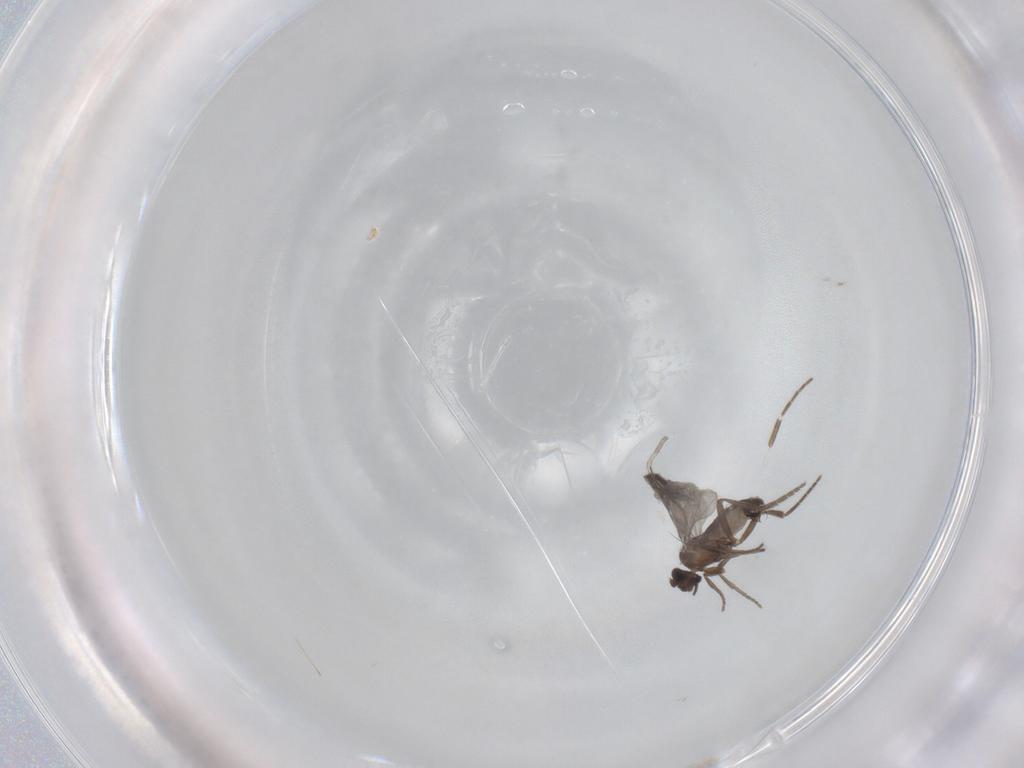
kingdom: Animalia
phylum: Arthropoda
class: Insecta
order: Diptera
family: Phoridae
